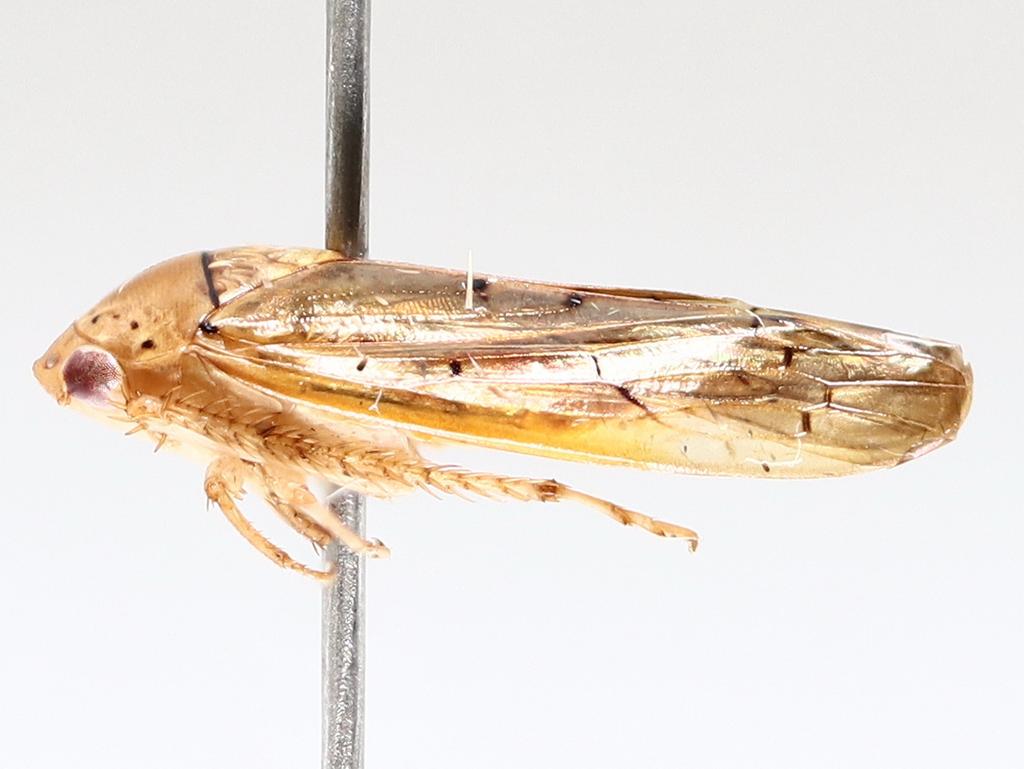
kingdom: Animalia
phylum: Arthropoda
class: Insecta
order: Diptera
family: Chironomidae
